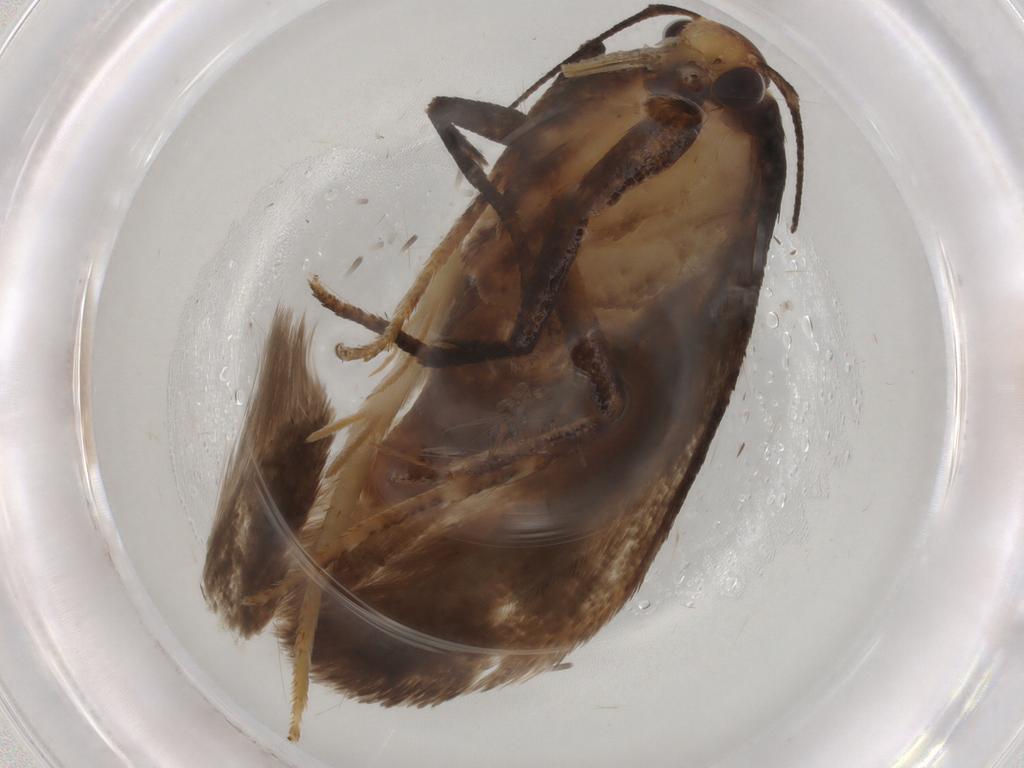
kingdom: Animalia
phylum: Arthropoda
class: Insecta
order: Lepidoptera
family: Gelechiidae
